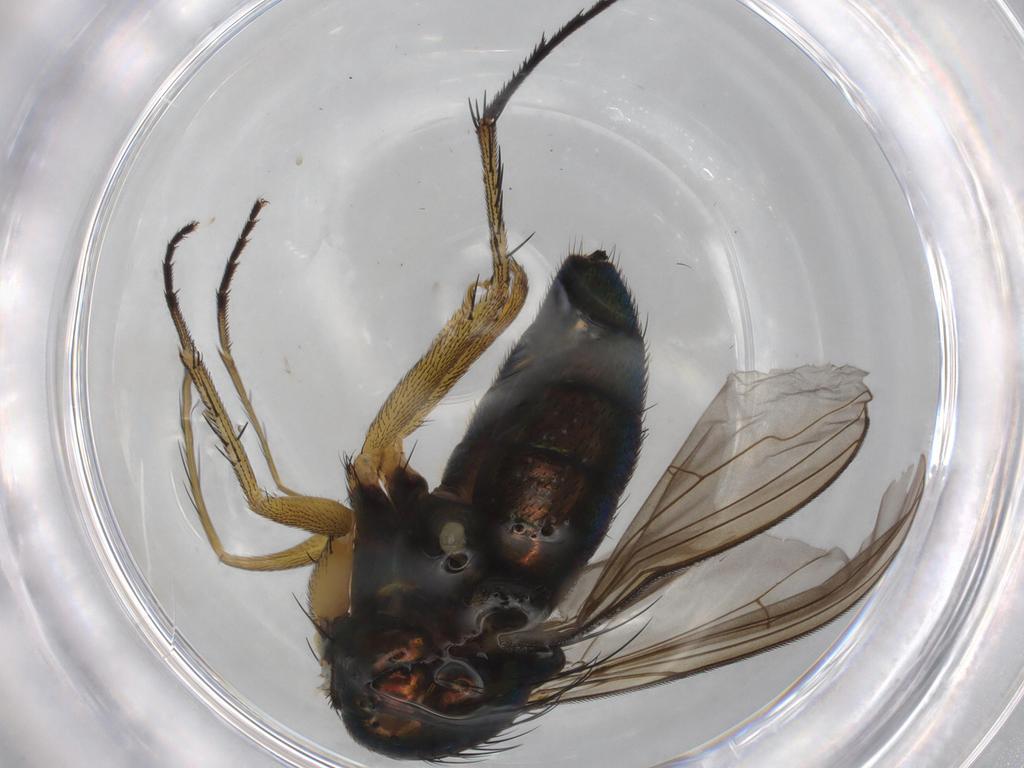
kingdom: Animalia
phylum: Arthropoda
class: Insecta
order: Diptera
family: Dolichopodidae
